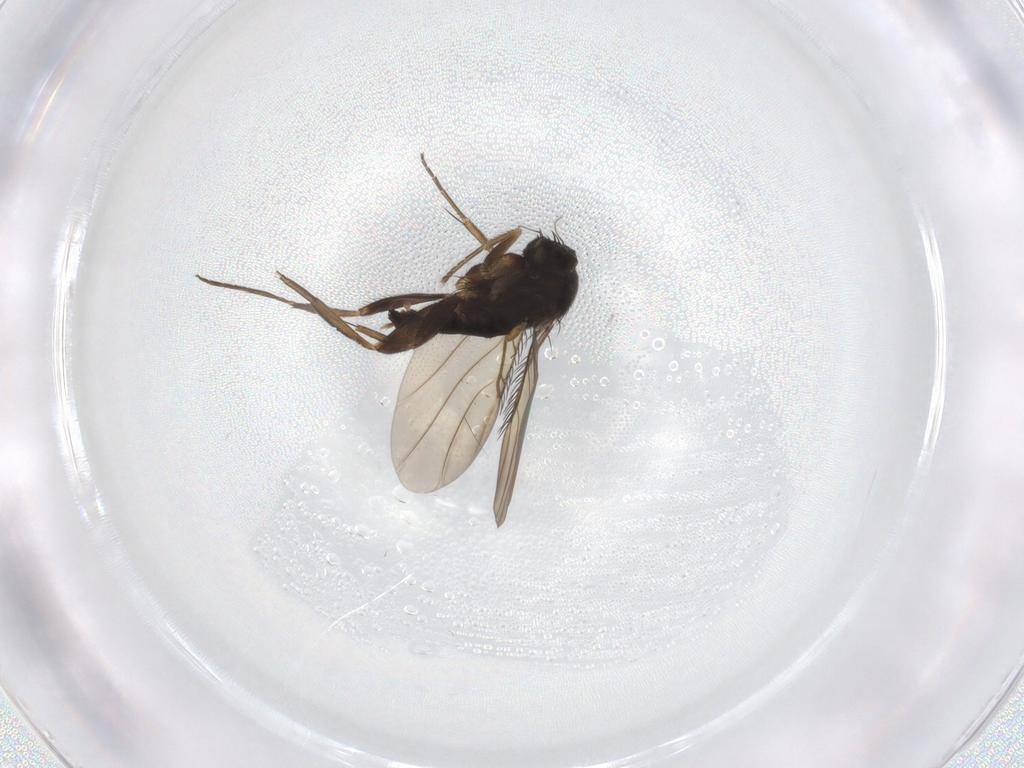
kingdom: Animalia
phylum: Arthropoda
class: Insecta
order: Diptera
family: Phoridae
